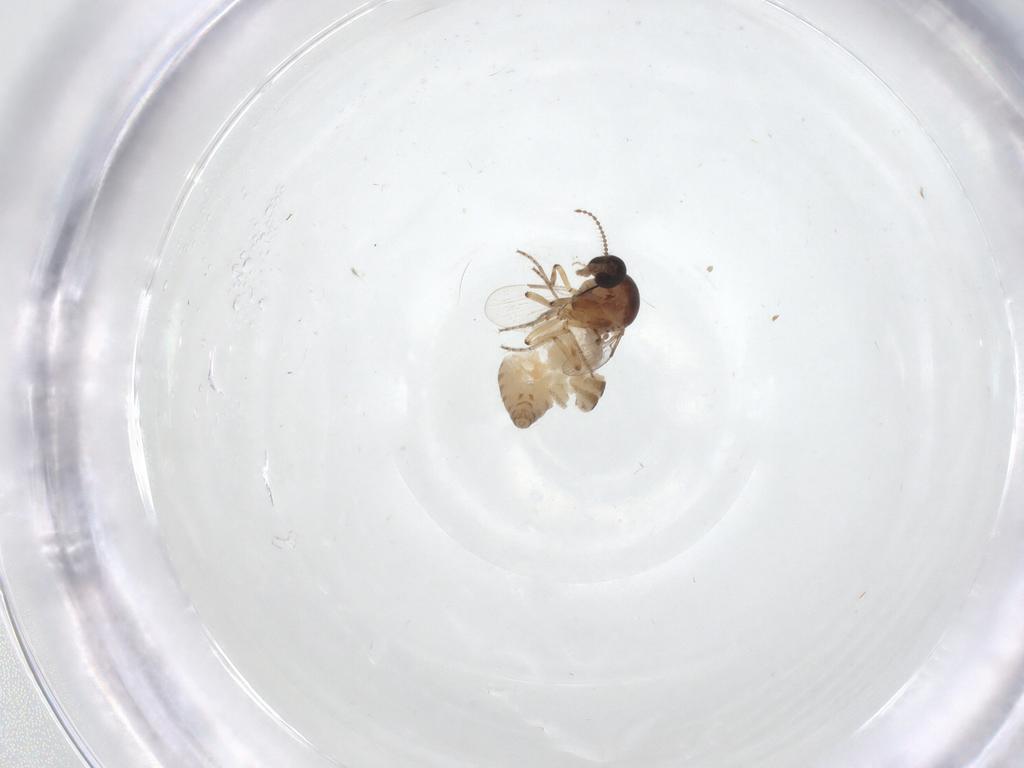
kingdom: Animalia
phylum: Arthropoda
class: Insecta
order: Diptera
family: Ceratopogonidae
